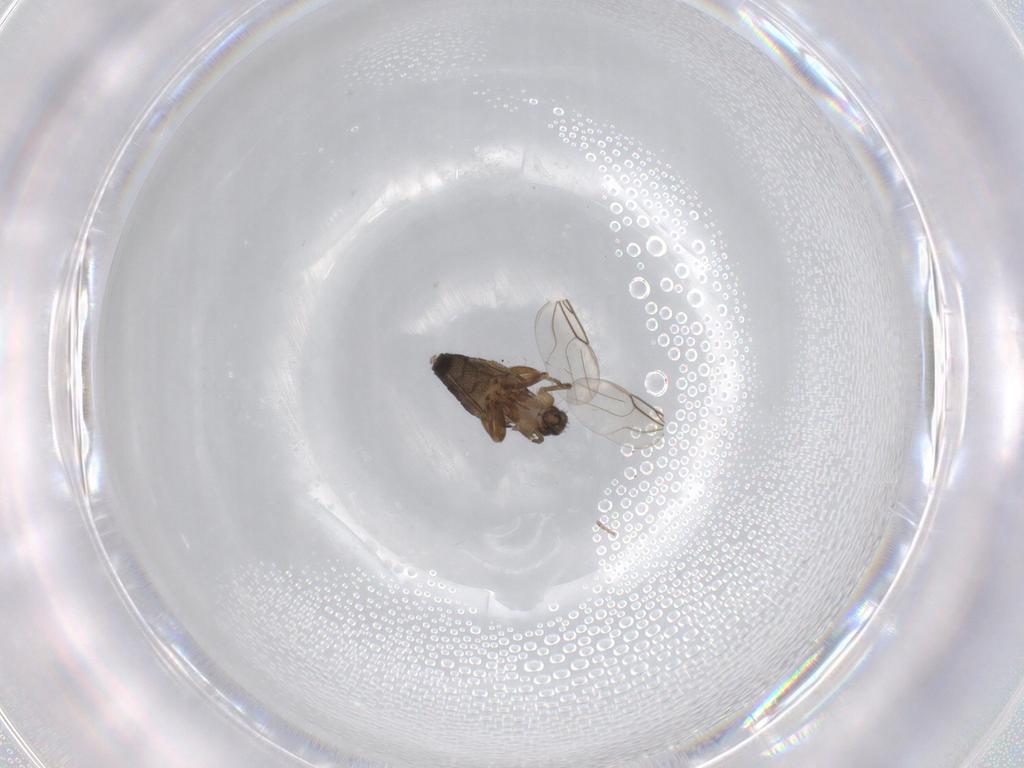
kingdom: Animalia
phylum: Arthropoda
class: Insecta
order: Diptera
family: Phoridae
